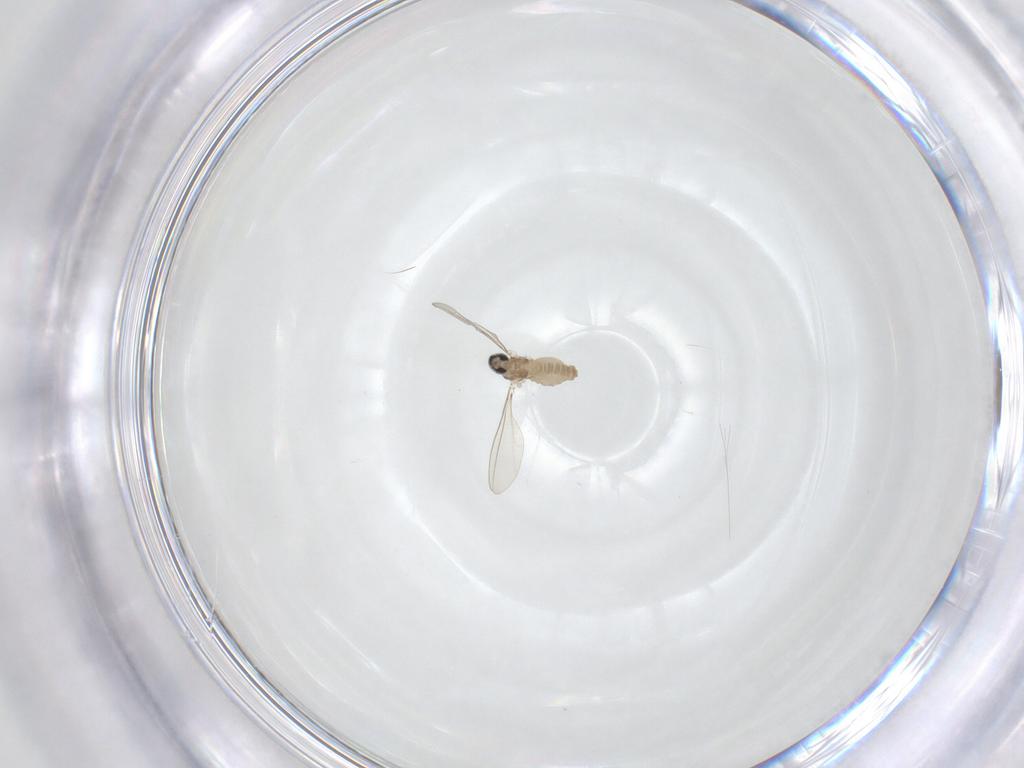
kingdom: Animalia
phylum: Arthropoda
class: Insecta
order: Diptera
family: Cecidomyiidae
